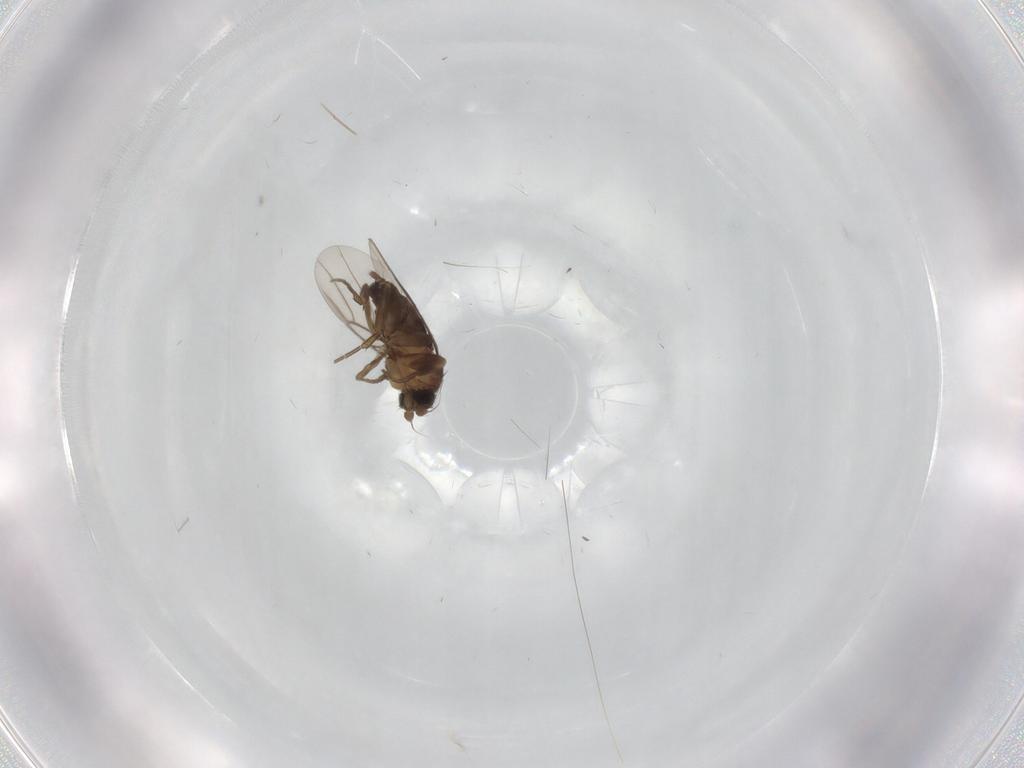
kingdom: Animalia
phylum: Arthropoda
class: Insecta
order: Diptera
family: Phoridae
